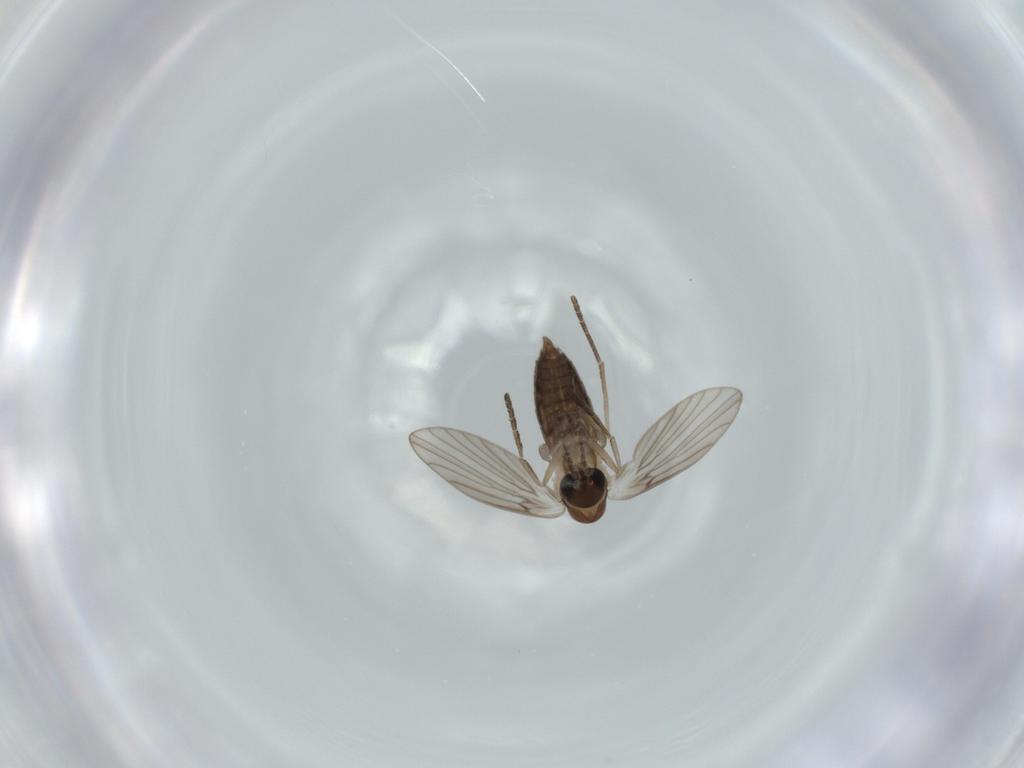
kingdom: Animalia
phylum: Arthropoda
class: Insecta
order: Diptera
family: Psychodidae
